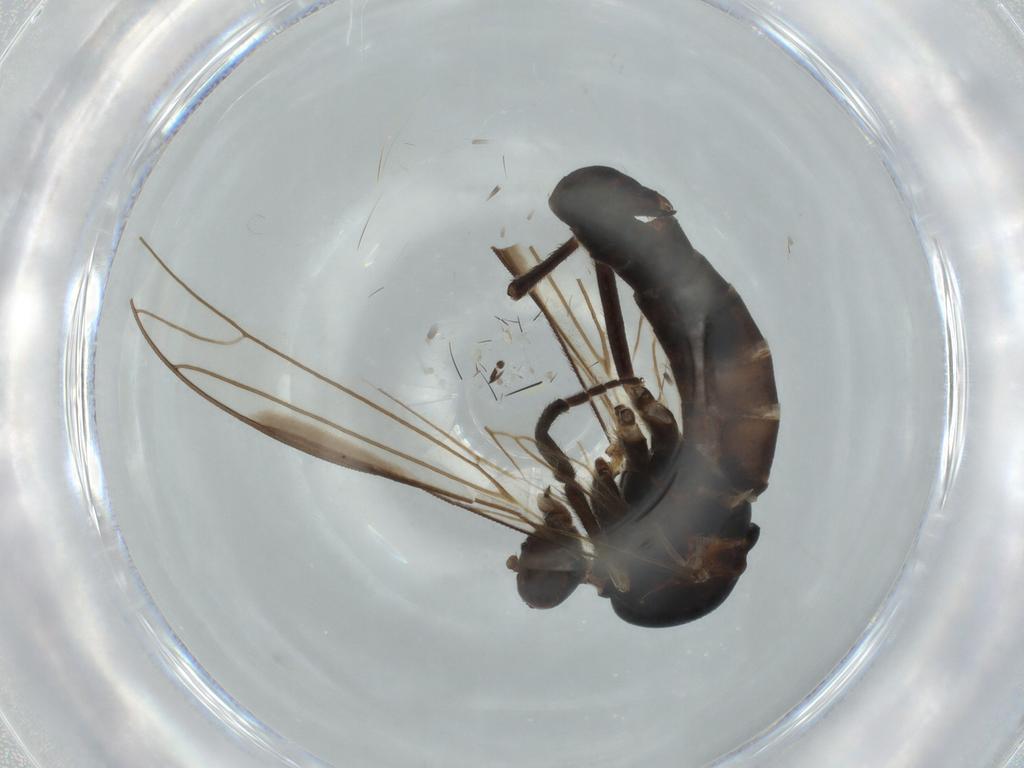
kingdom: Animalia
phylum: Arthropoda
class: Insecta
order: Diptera
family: Empididae
